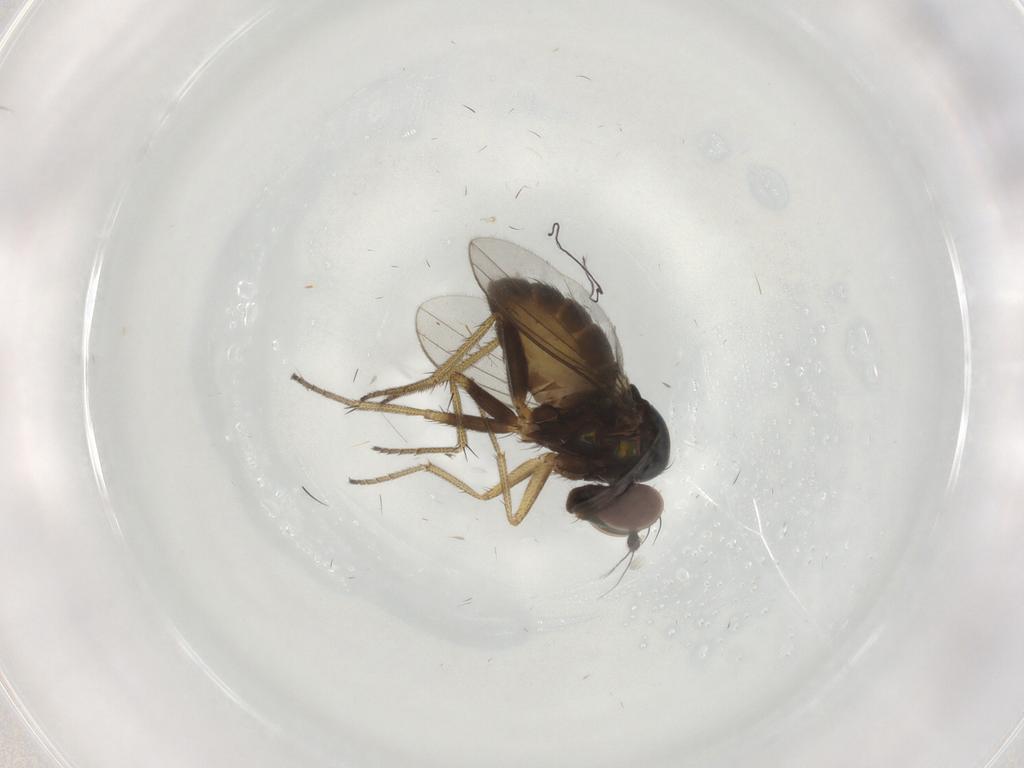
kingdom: Animalia
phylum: Arthropoda
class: Insecta
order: Diptera
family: Dolichopodidae
